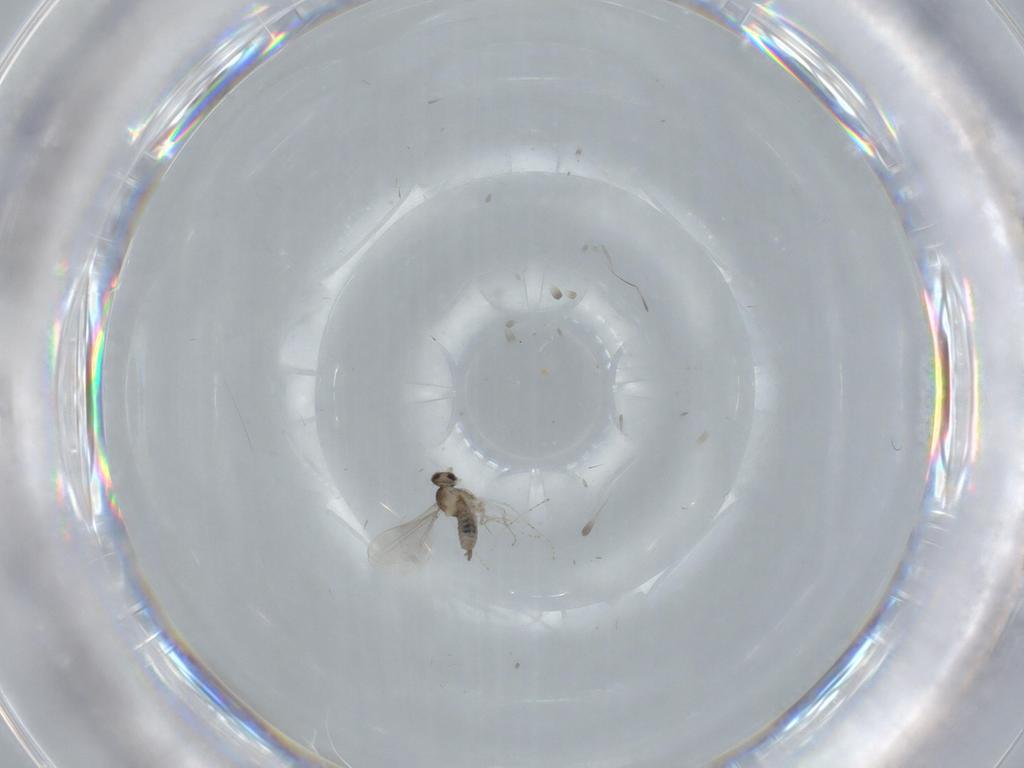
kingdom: Animalia
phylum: Arthropoda
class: Insecta
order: Diptera
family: Cecidomyiidae
